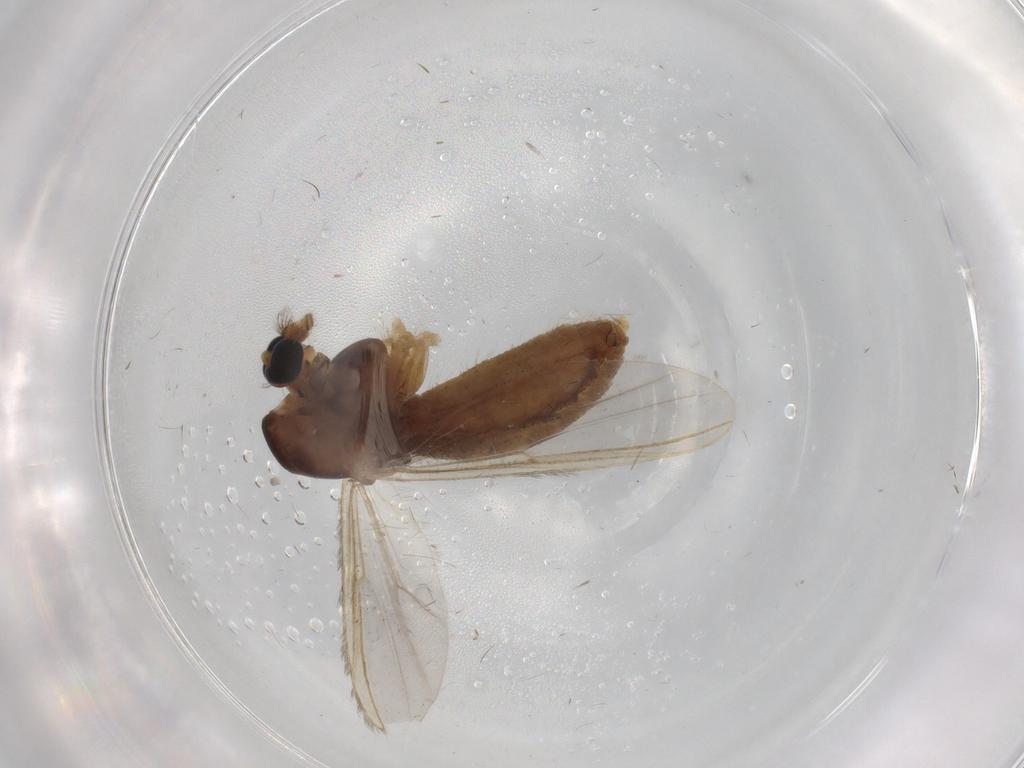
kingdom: Animalia
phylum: Arthropoda
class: Insecta
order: Diptera
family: Chironomidae
